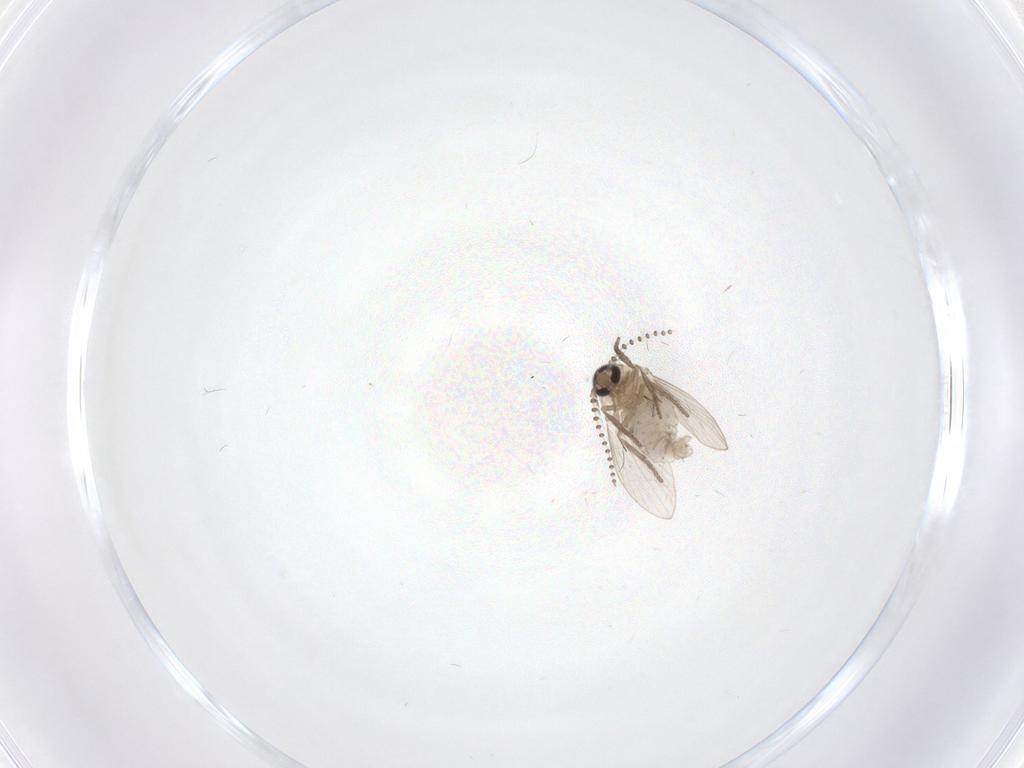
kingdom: Animalia
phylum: Arthropoda
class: Insecta
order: Diptera
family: Psychodidae
